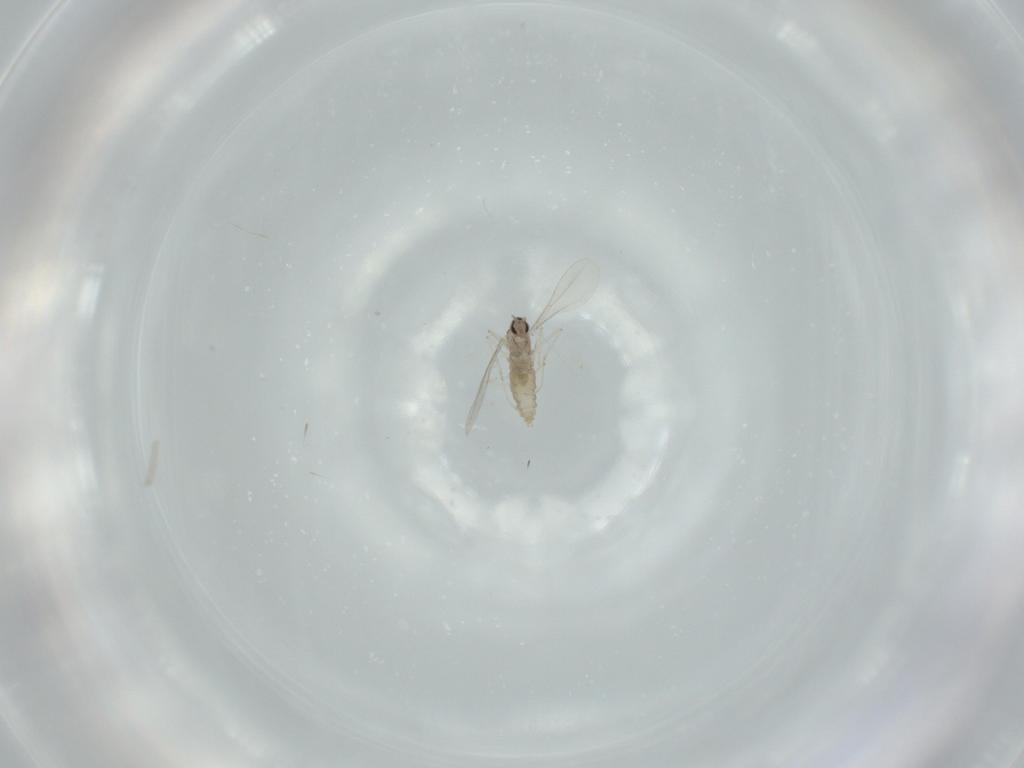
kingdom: Animalia
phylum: Arthropoda
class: Insecta
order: Diptera
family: Cecidomyiidae
